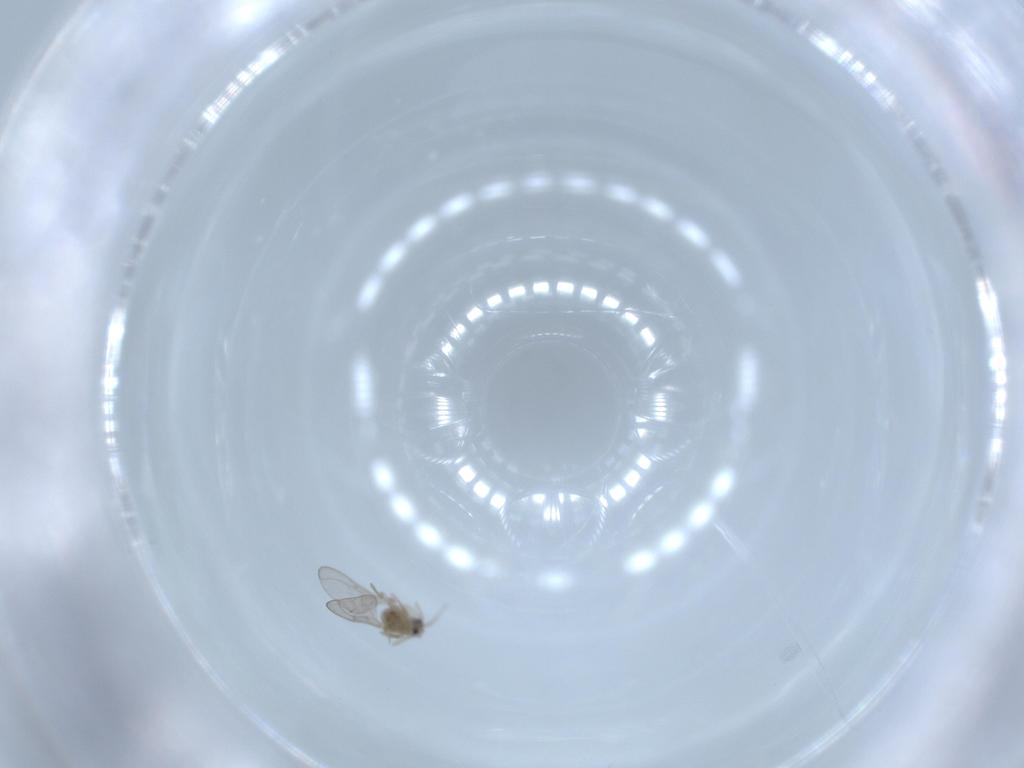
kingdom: Animalia
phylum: Arthropoda
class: Insecta
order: Diptera
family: Cecidomyiidae
